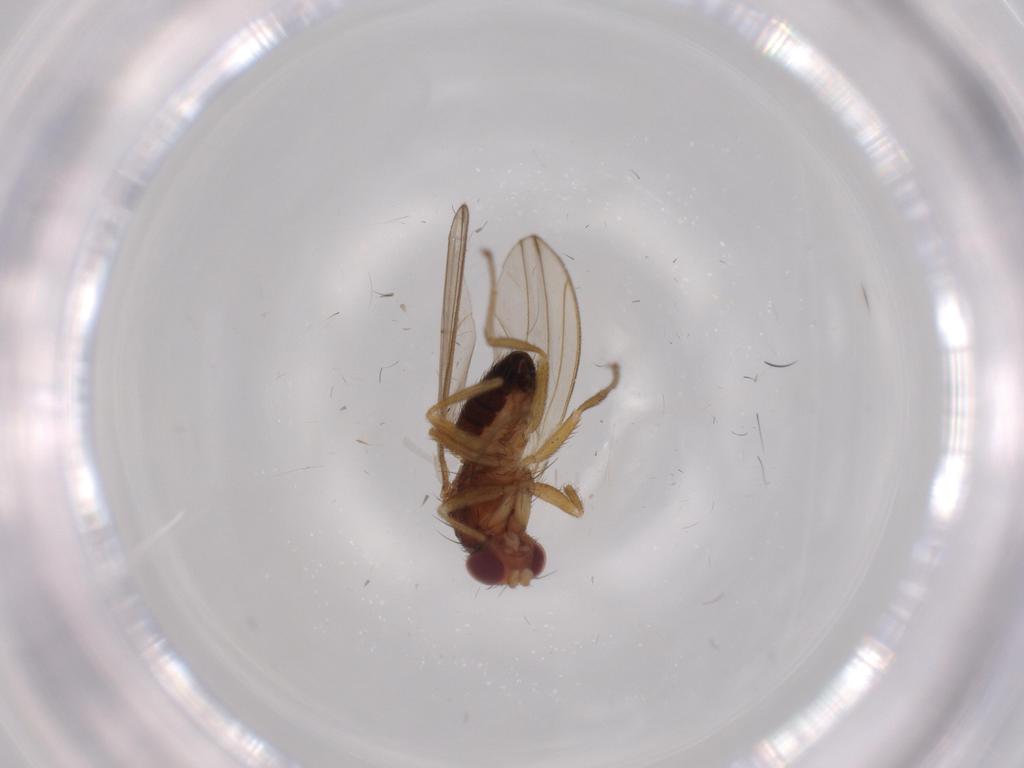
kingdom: Animalia
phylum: Arthropoda
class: Insecta
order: Diptera
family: Drosophilidae
